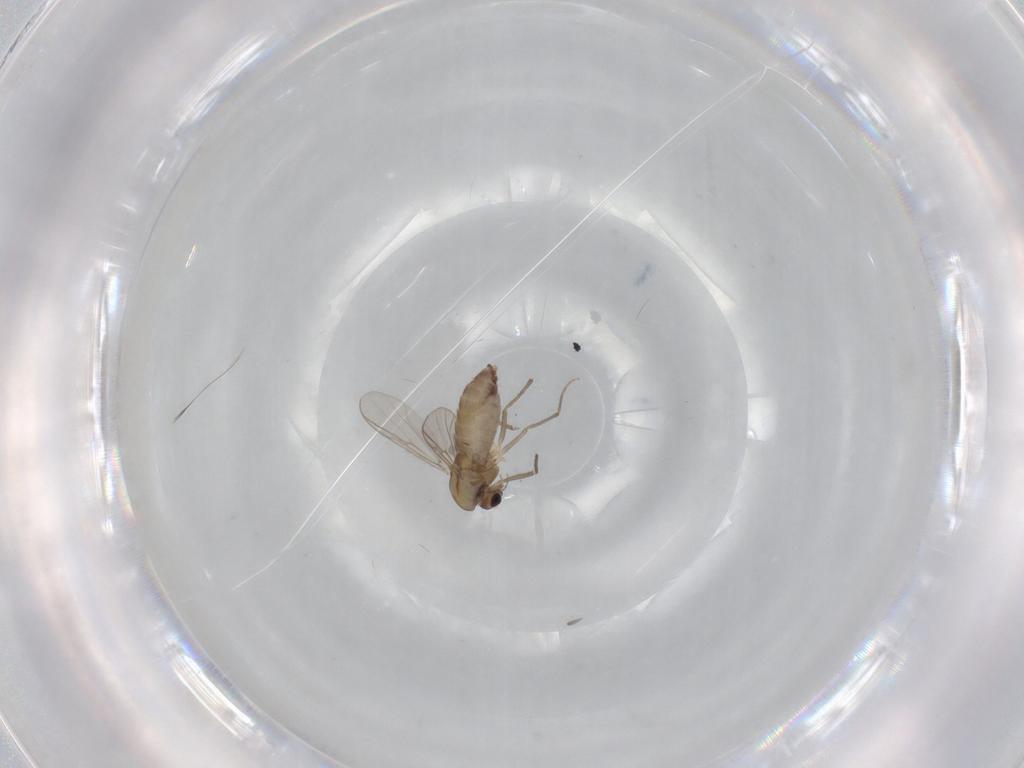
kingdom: Animalia
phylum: Arthropoda
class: Insecta
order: Diptera
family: Chironomidae
